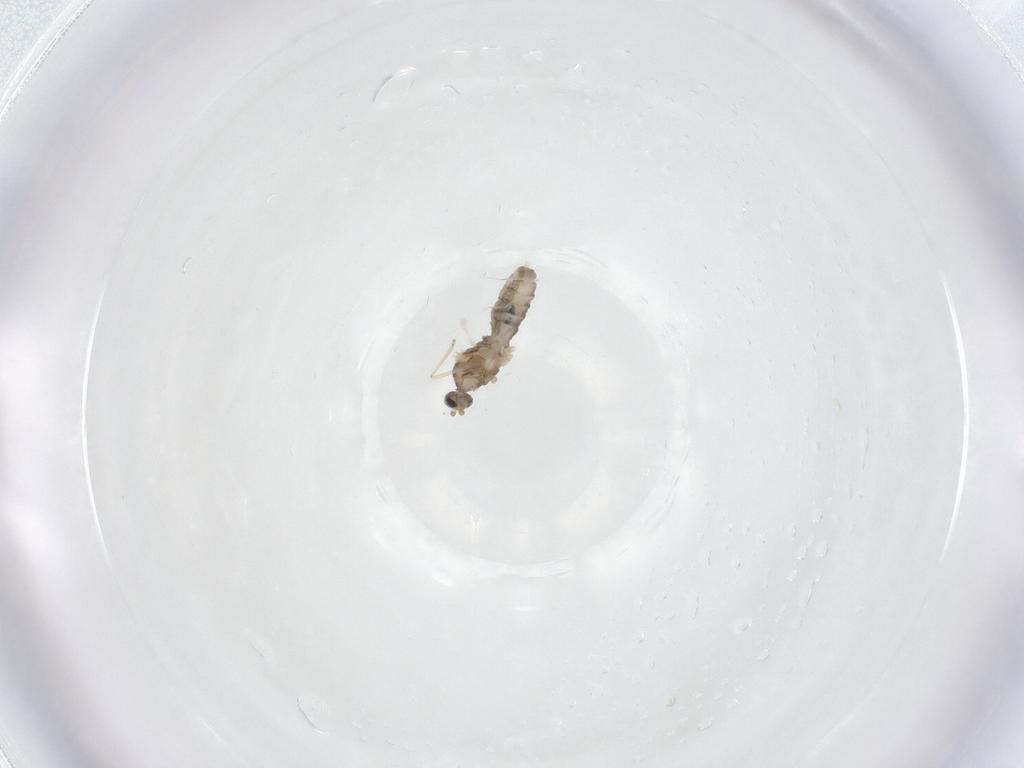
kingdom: Animalia
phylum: Arthropoda
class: Insecta
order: Diptera
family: Cecidomyiidae
